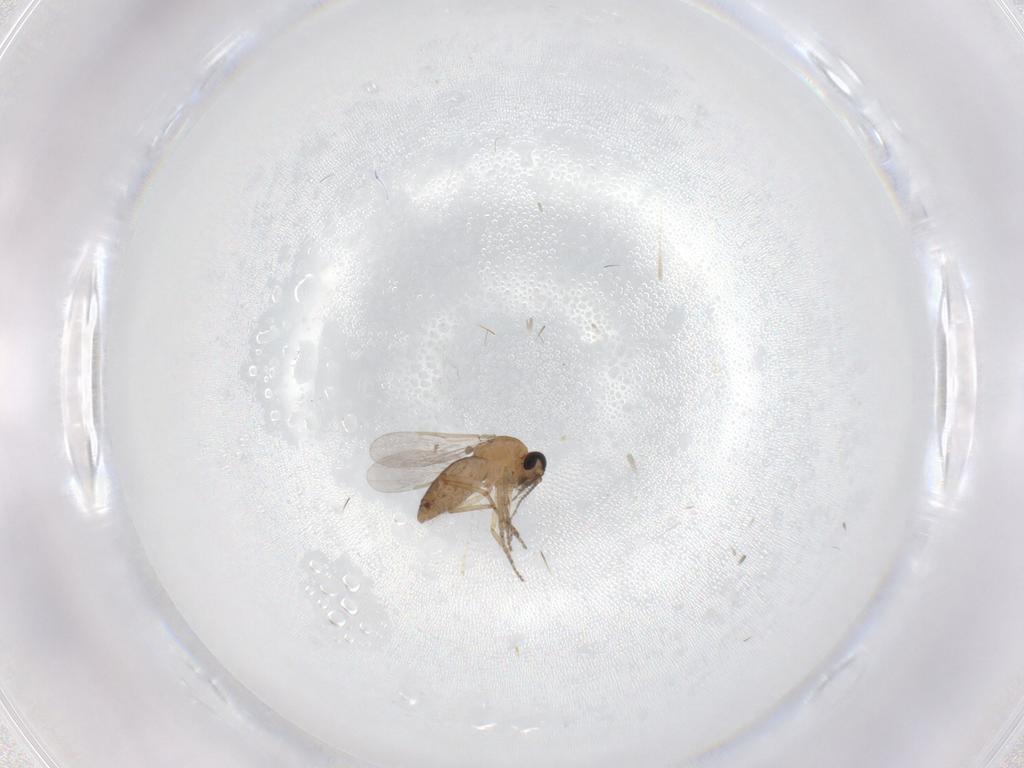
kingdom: Animalia
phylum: Arthropoda
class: Insecta
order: Diptera
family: Ceratopogonidae
